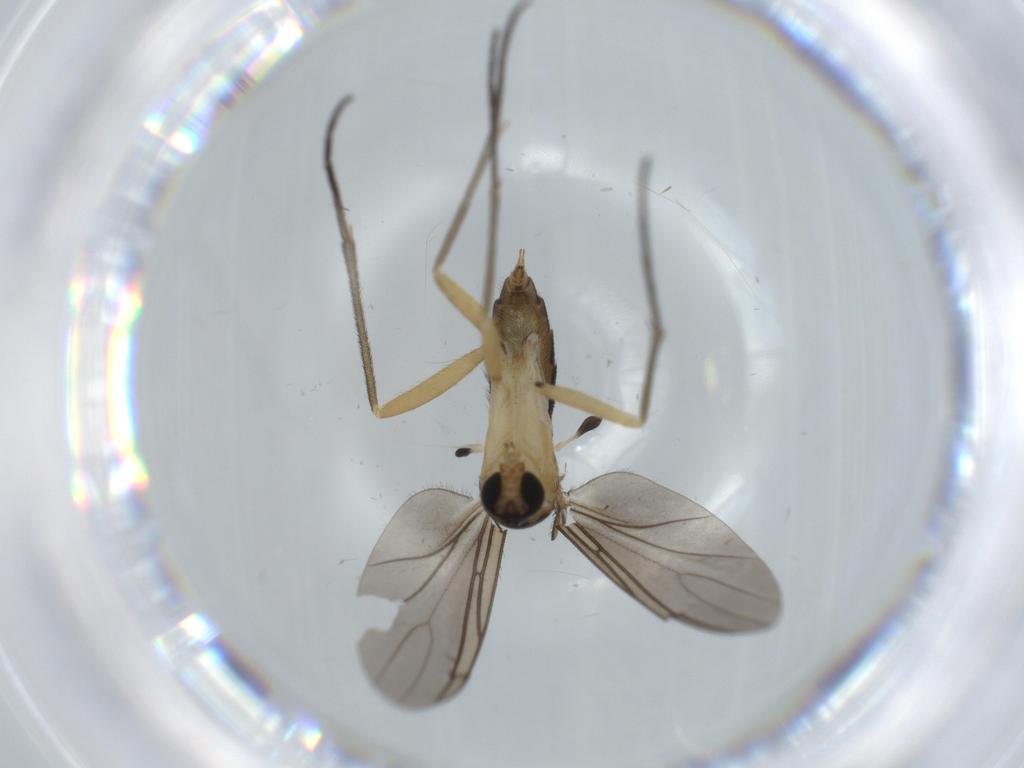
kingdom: Animalia
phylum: Arthropoda
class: Insecta
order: Diptera
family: Sciaridae
